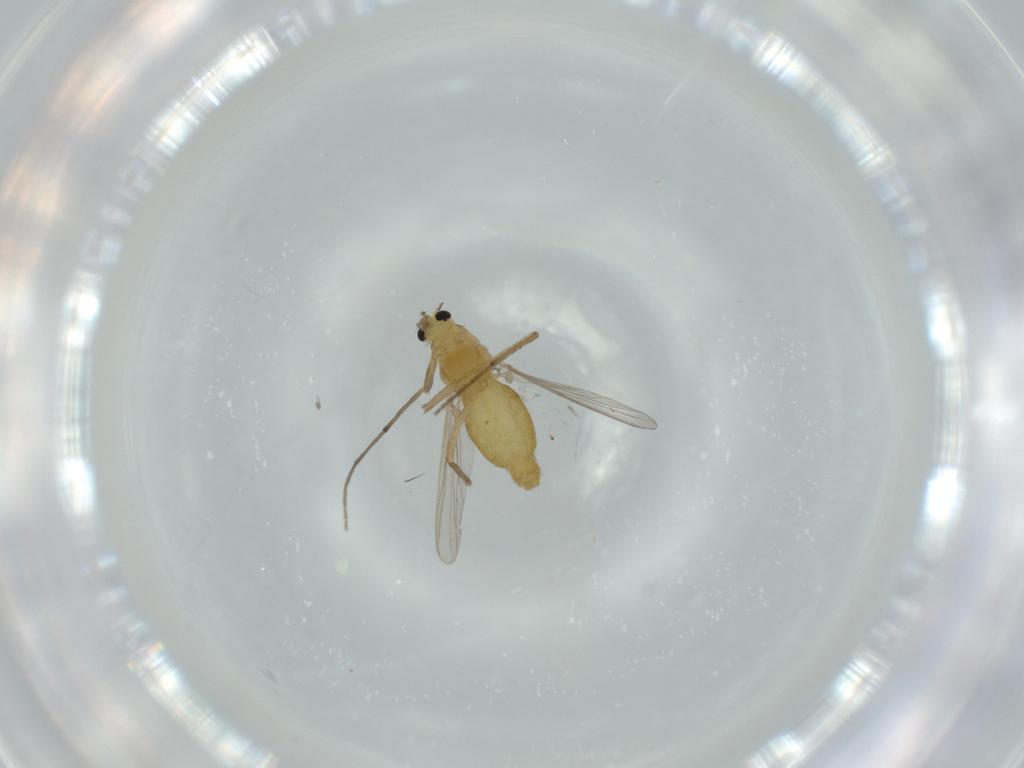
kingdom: Animalia
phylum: Arthropoda
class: Insecta
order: Diptera
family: Chironomidae
